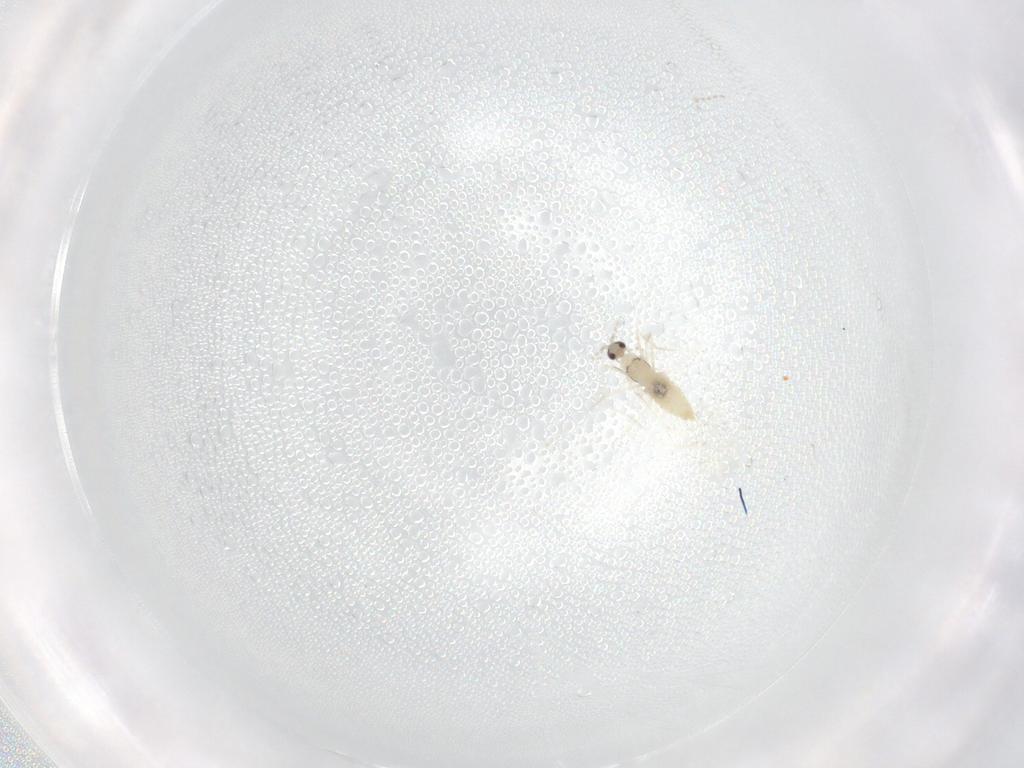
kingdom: Animalia
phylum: Arthropoda
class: Insecta
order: Diptera
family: Cecidomyiidae
